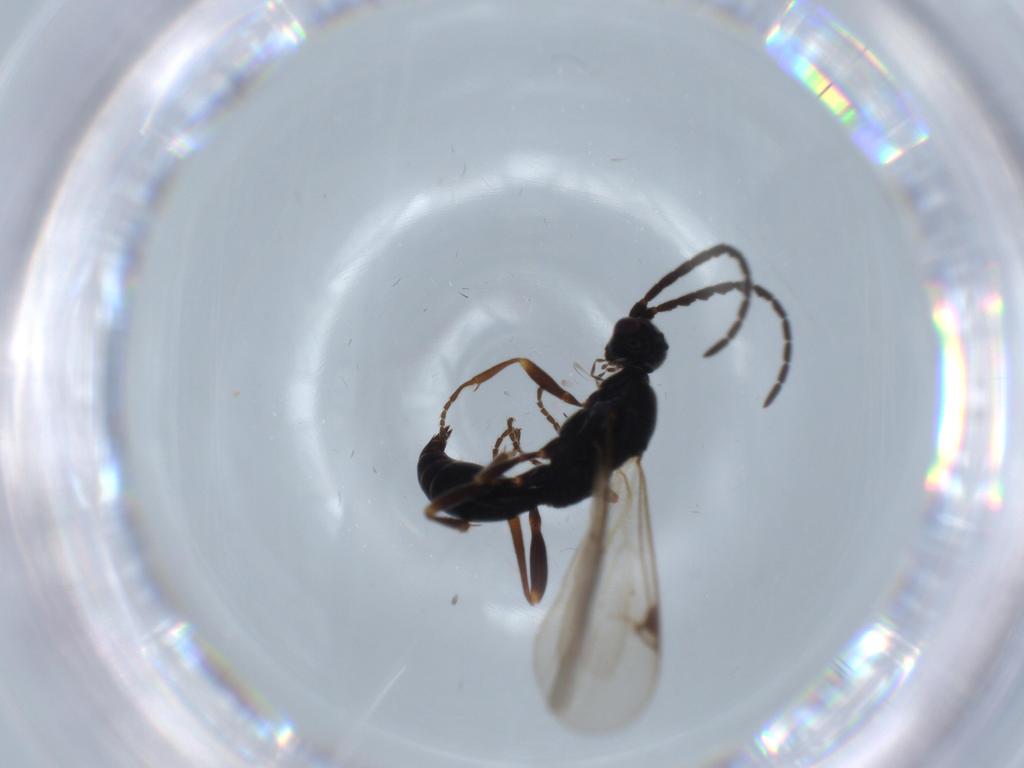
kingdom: Animalia
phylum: Arthropoda
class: Insecta
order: Hymenoptera
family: Proctotrupidae
